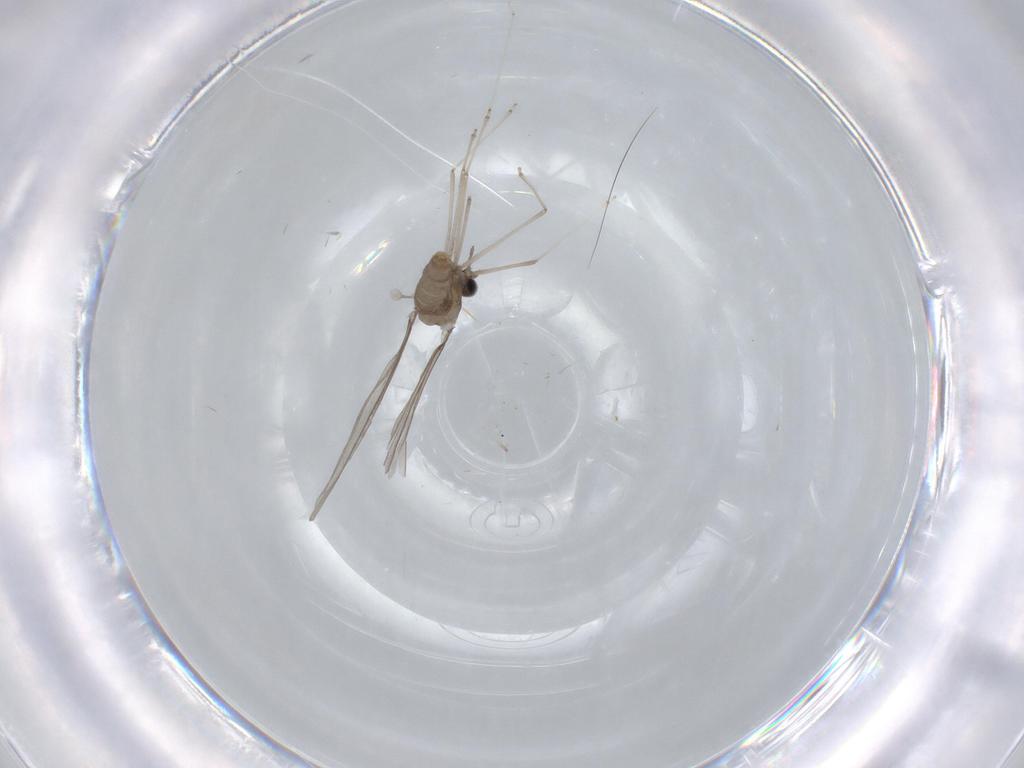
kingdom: Animalia
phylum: Arthropoda
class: Insecta
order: Diptera
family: Cecidomyiidae
